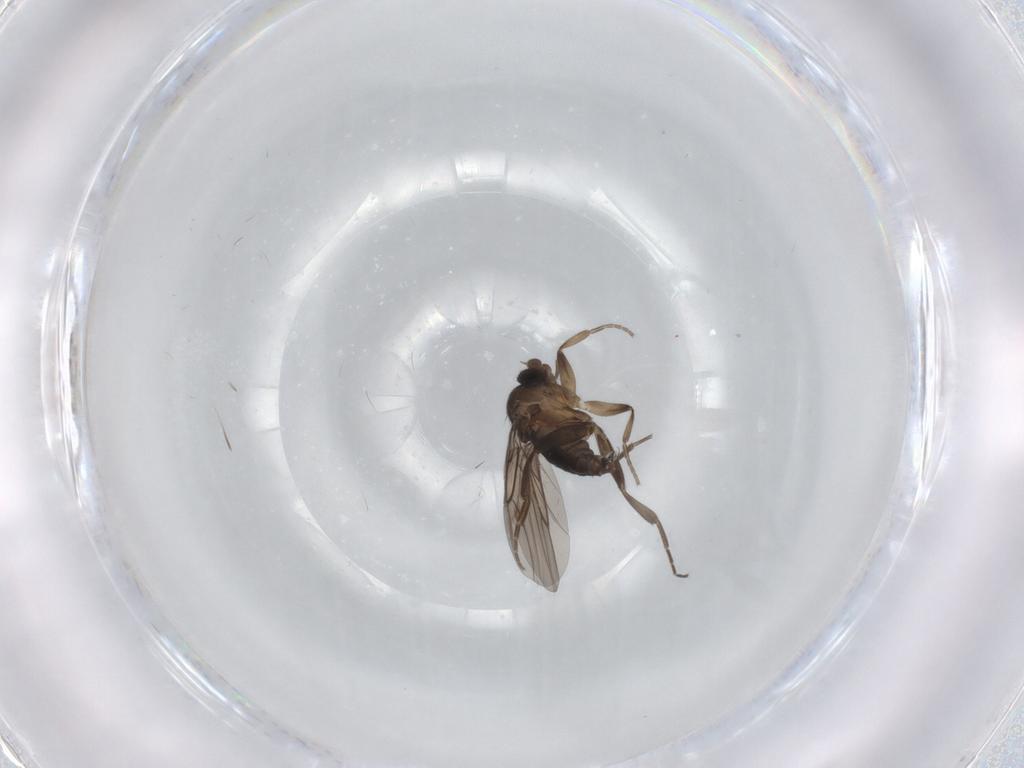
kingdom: Animalia
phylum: Arthropoda
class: Insecta
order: Diptera
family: Phoridae
